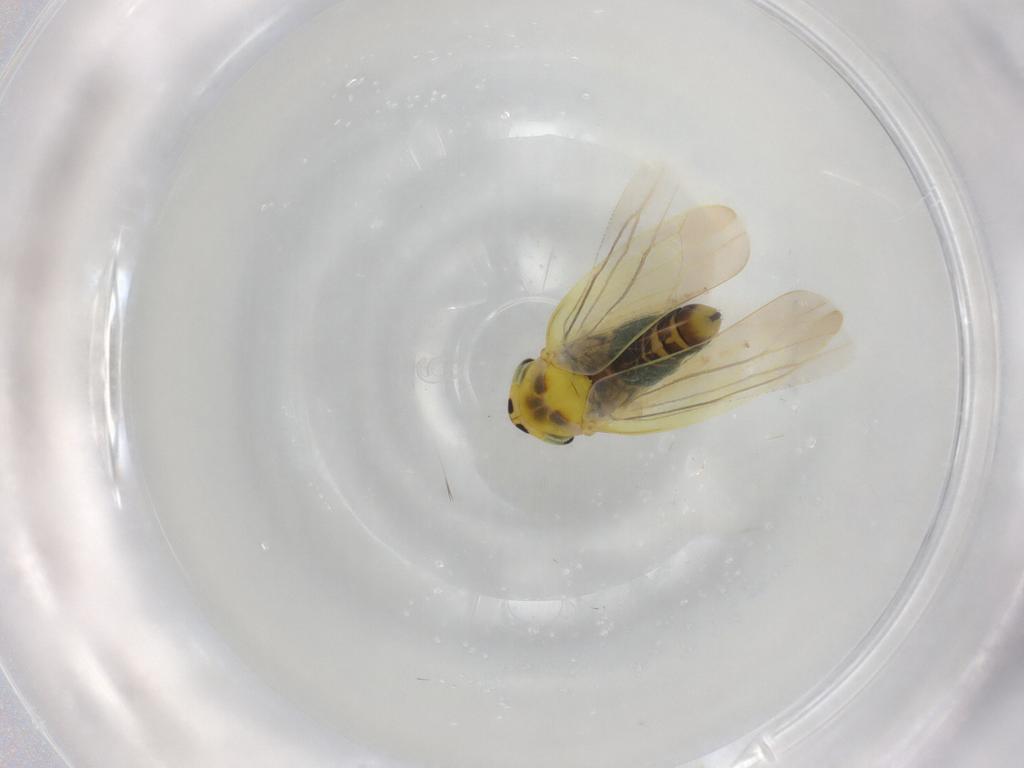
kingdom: Animalia
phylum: Arthropoda
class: Insecta
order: Hemiptera
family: Cicadellidae
